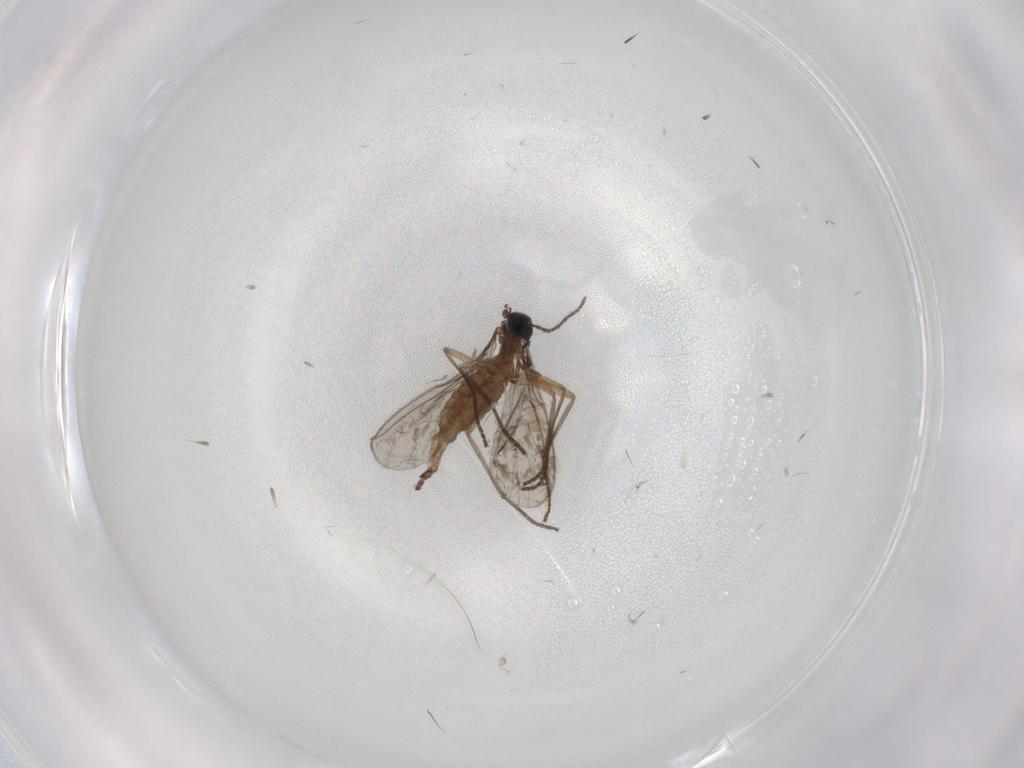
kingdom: Animalia
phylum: Arthropoda
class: Insecta
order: Diptera
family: Sciaridae
